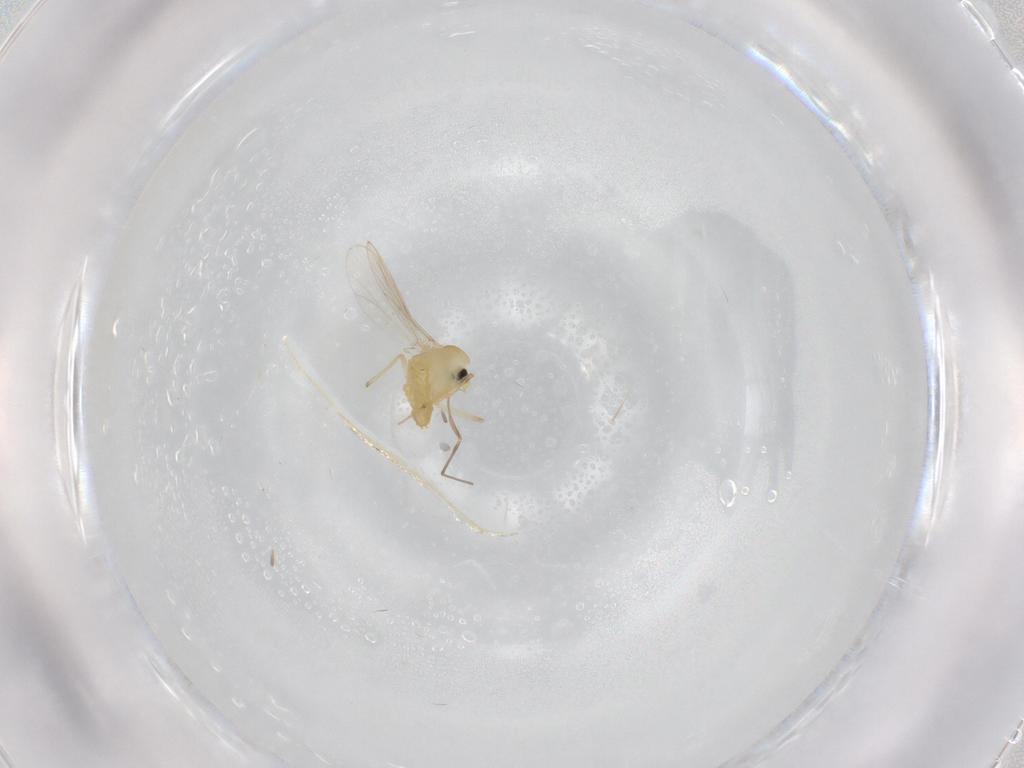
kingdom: Animalia
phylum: Arthropoda
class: Insecta
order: Diptera
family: Chironomidae
